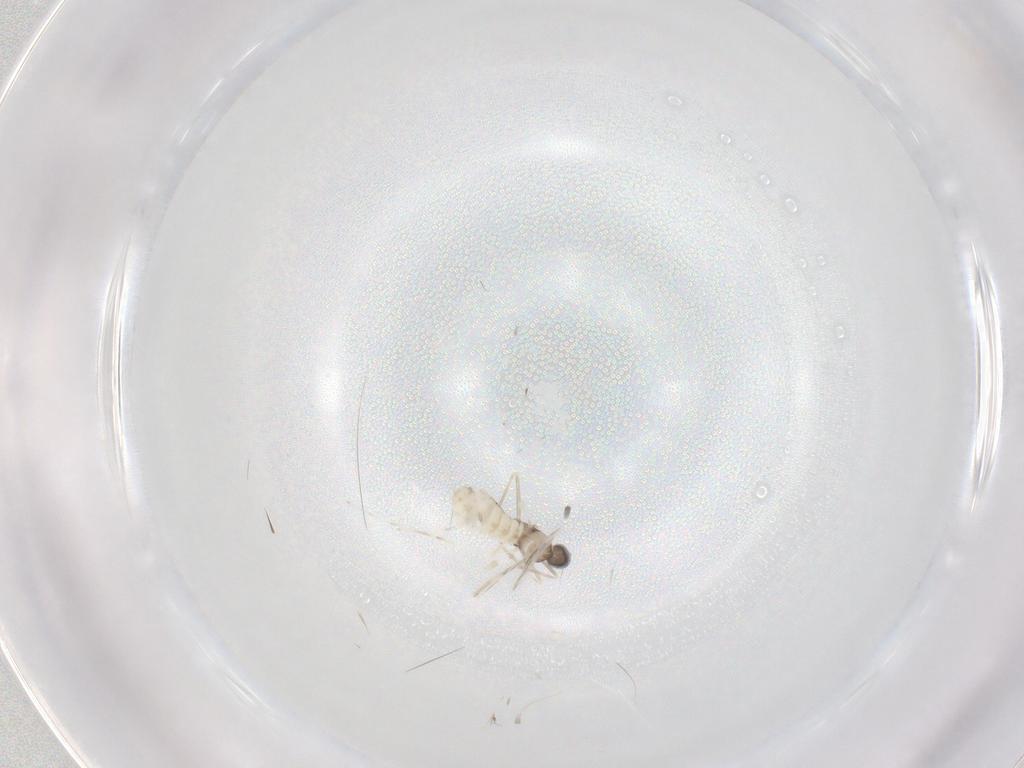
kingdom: Animalia
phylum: Arthropoda
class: Insecta
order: Diptera
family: Cecidomyiidae
